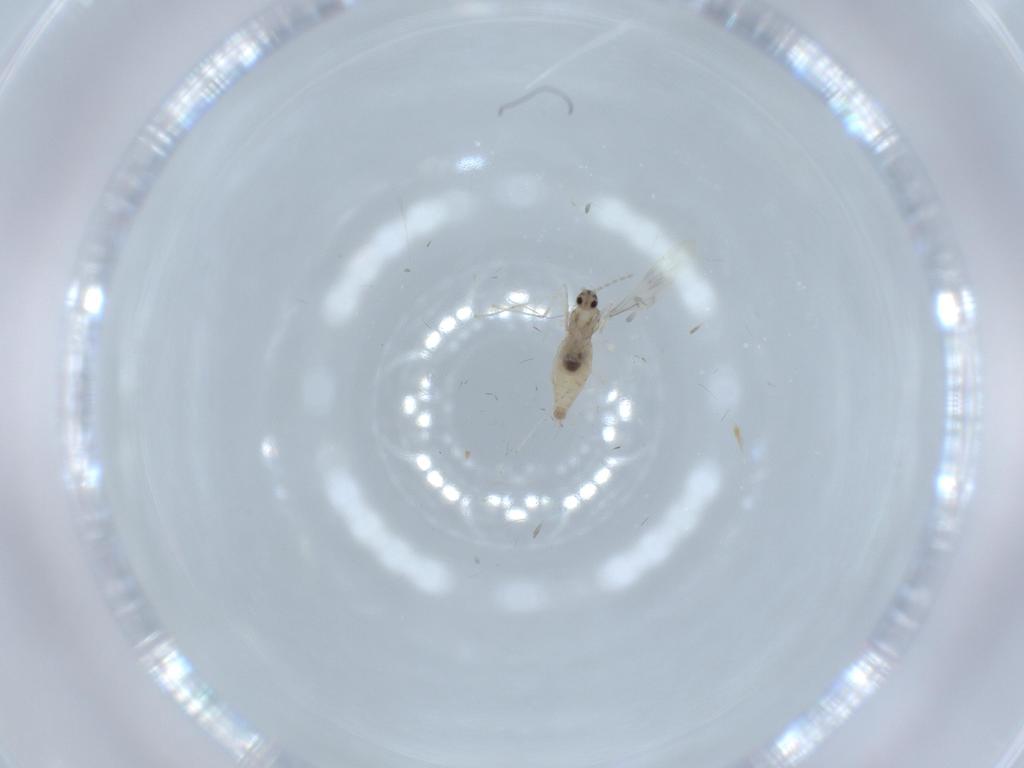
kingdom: Animalia
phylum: Arthropoda
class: Insecta
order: Diptera
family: Cecidomyiidae
